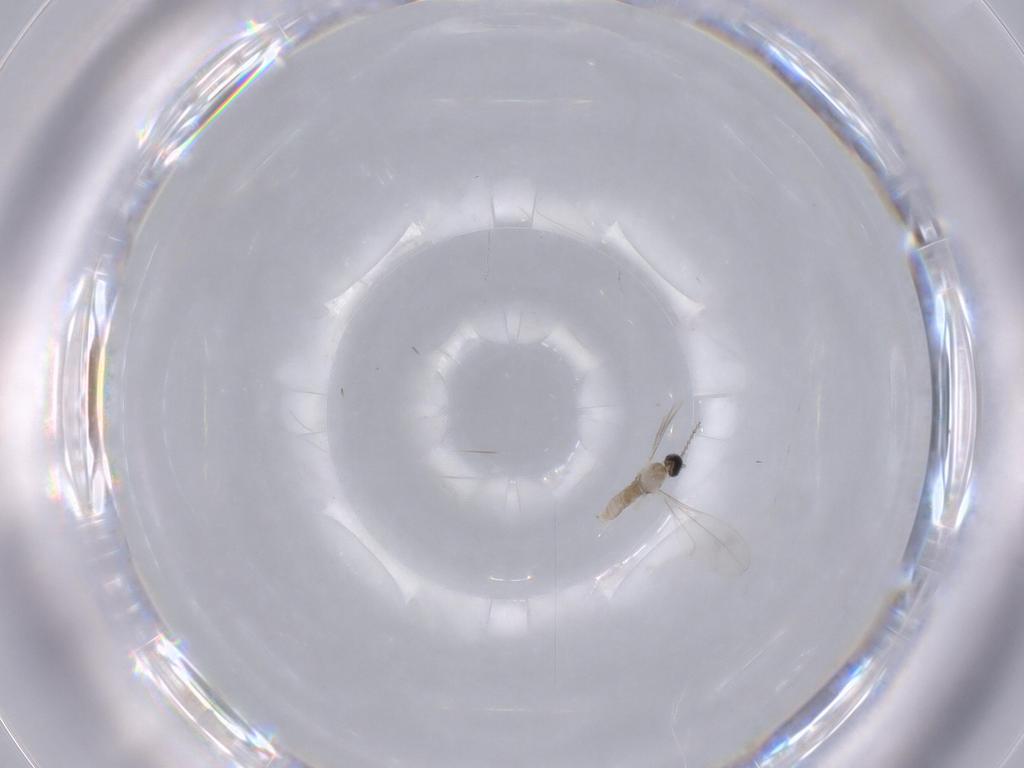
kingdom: Animalia
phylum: Arthropoda
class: Insecta
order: Diptera
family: Cecidomyiidae
